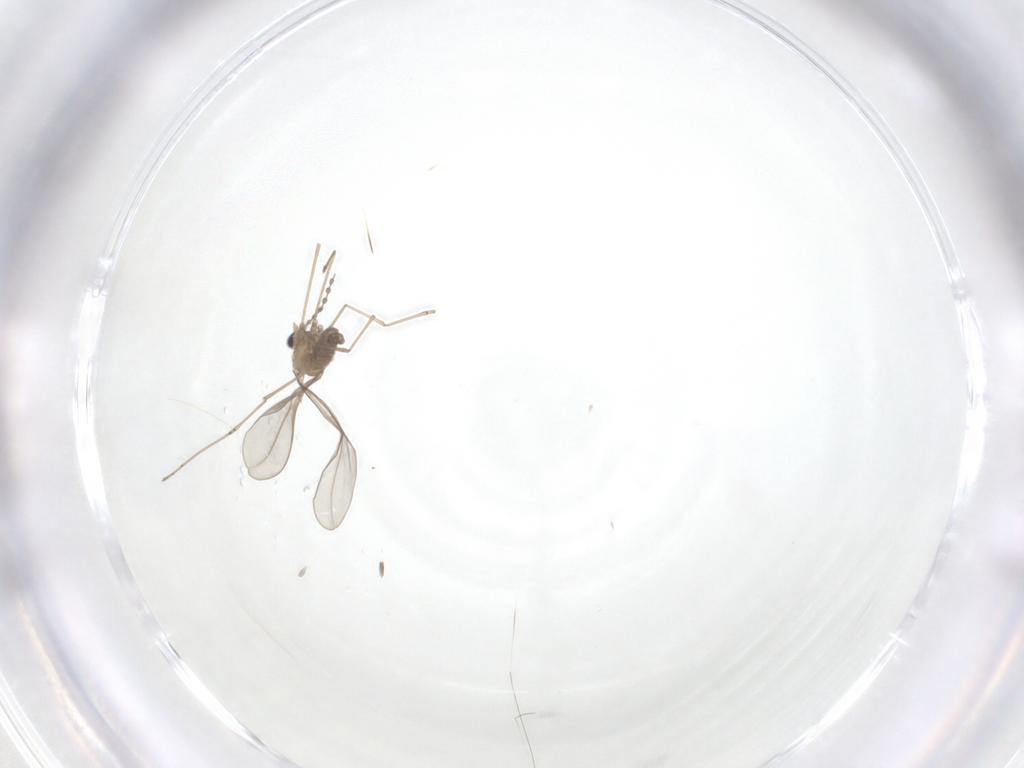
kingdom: Animalia
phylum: Arthropoda
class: Insecta
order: Diptera
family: Cecidomyiidae
